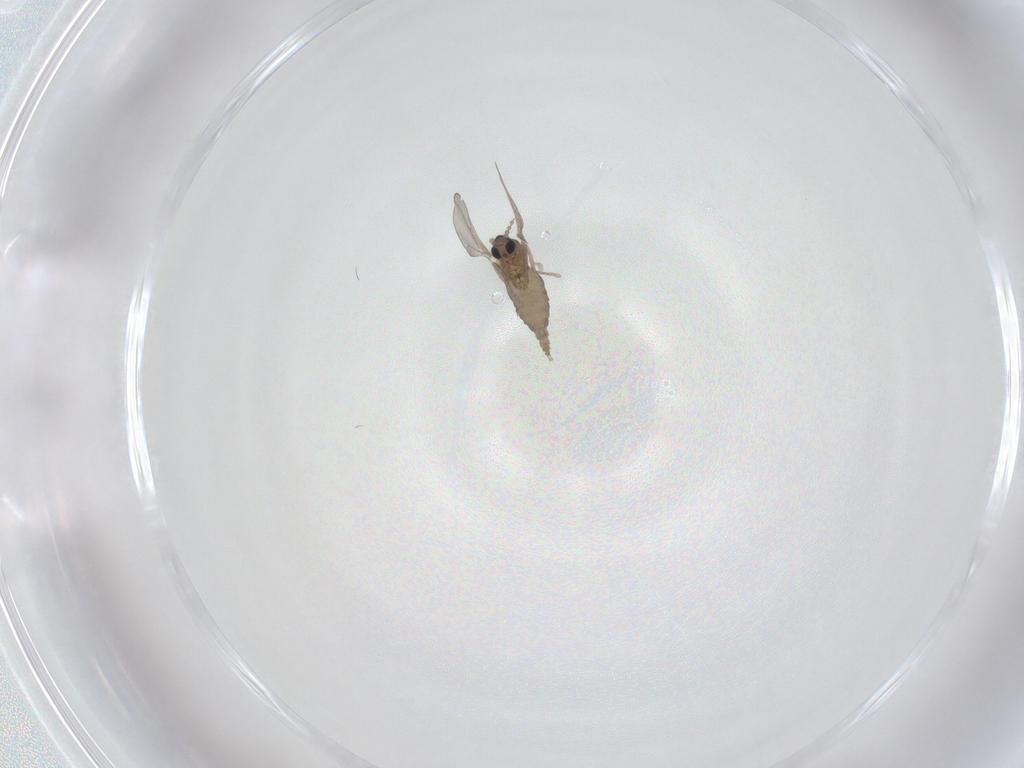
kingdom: Animalia
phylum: Arthropoda
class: Insecta
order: Diptera
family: Cecidomyiidae
